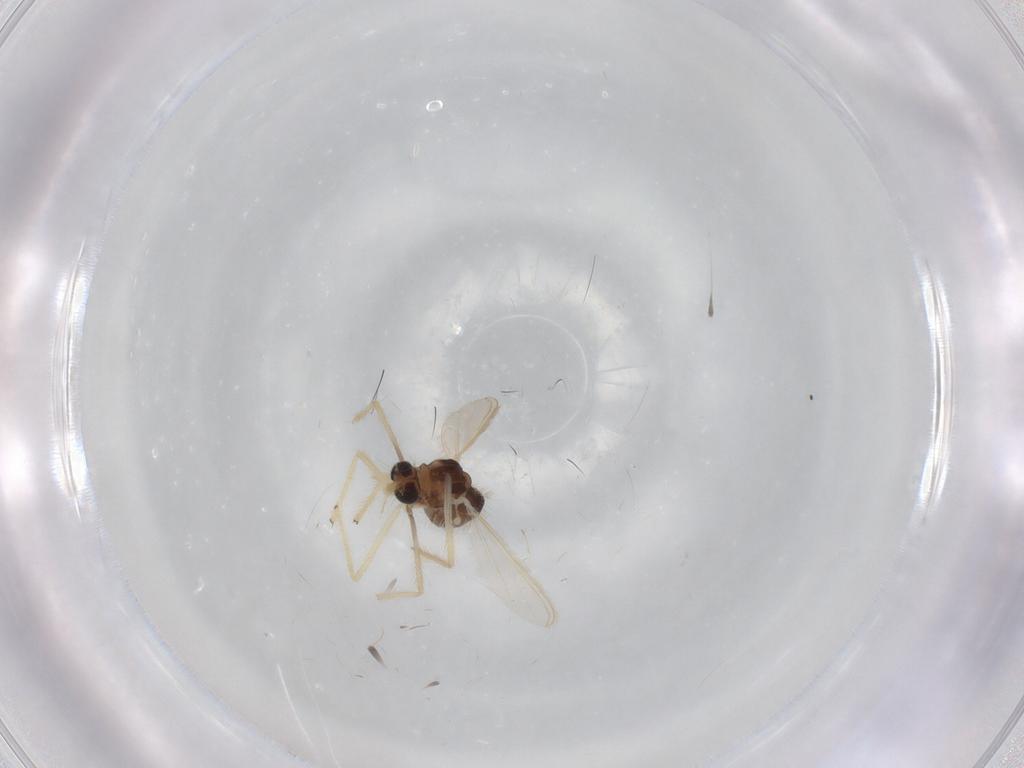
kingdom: Animalia
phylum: Arthropoda
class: Insecta
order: Diptera
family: Chironomidae
